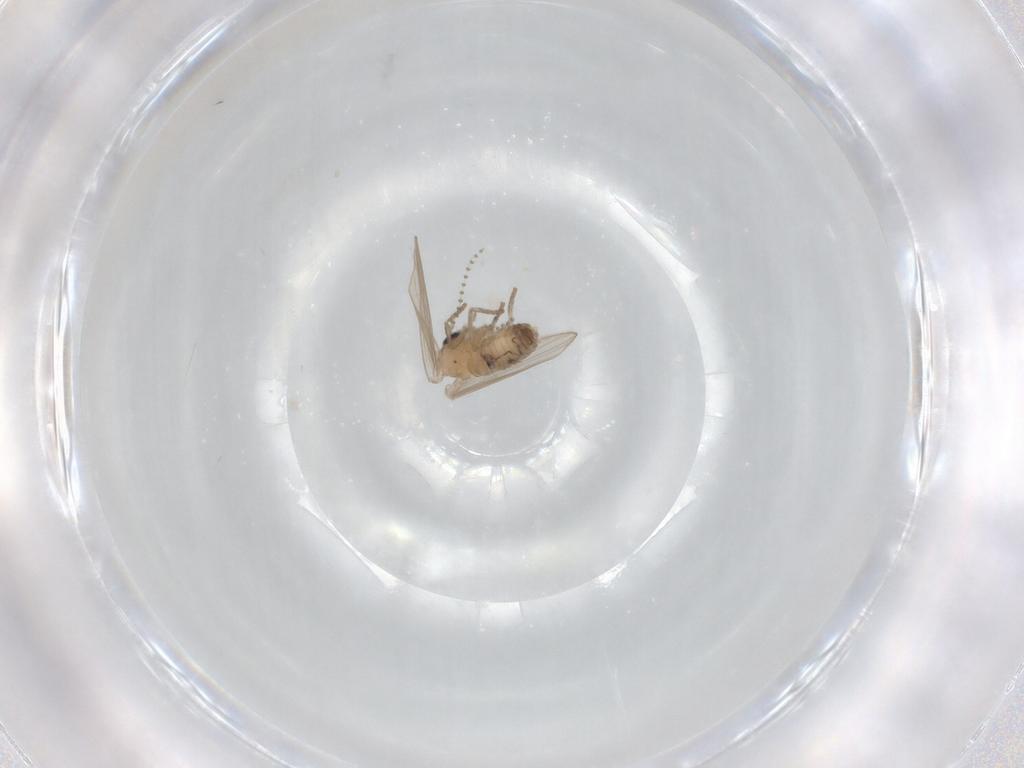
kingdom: Animalia
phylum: Arthropoda
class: Insecta
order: Diptera
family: Psychodidae
